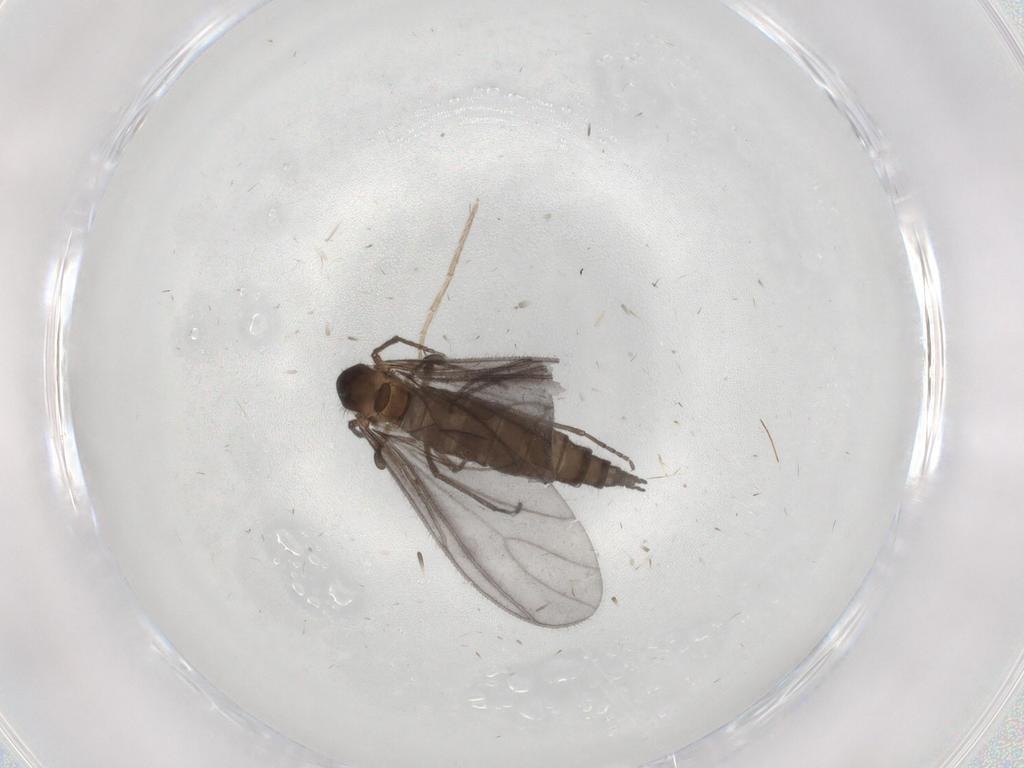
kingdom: Animalia
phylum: Arthropoda
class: Insecta
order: Diptera
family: Sciaridae
